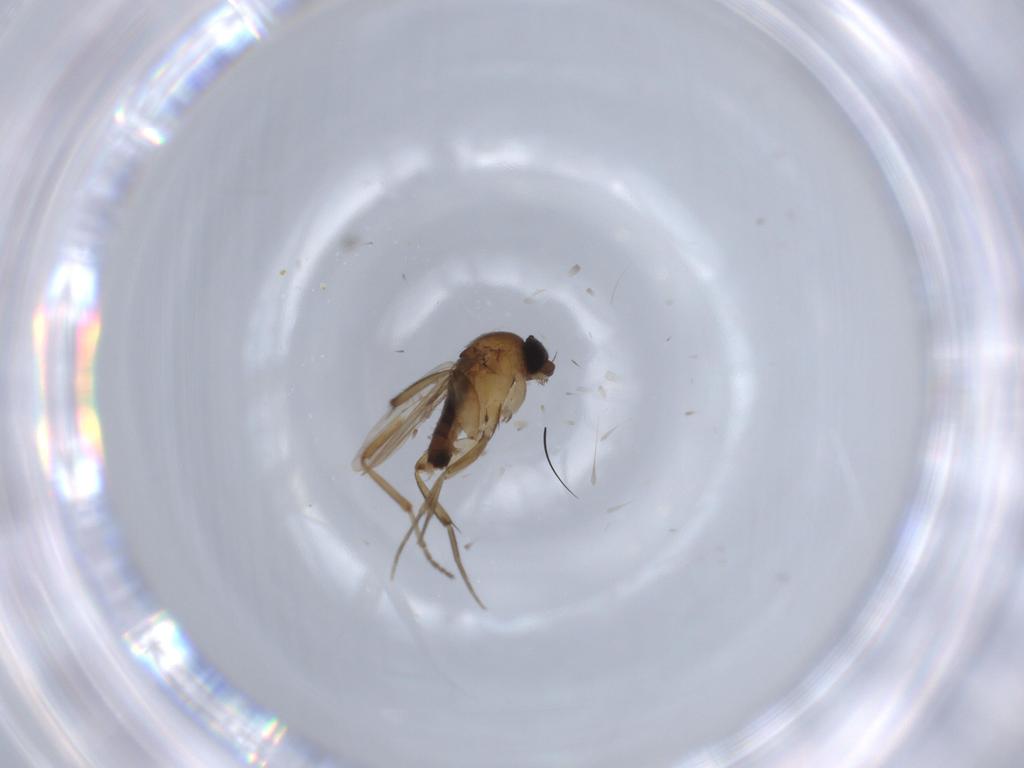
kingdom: Animalia
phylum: Arthropoda
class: Insecta
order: Diptera
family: Phoridae
